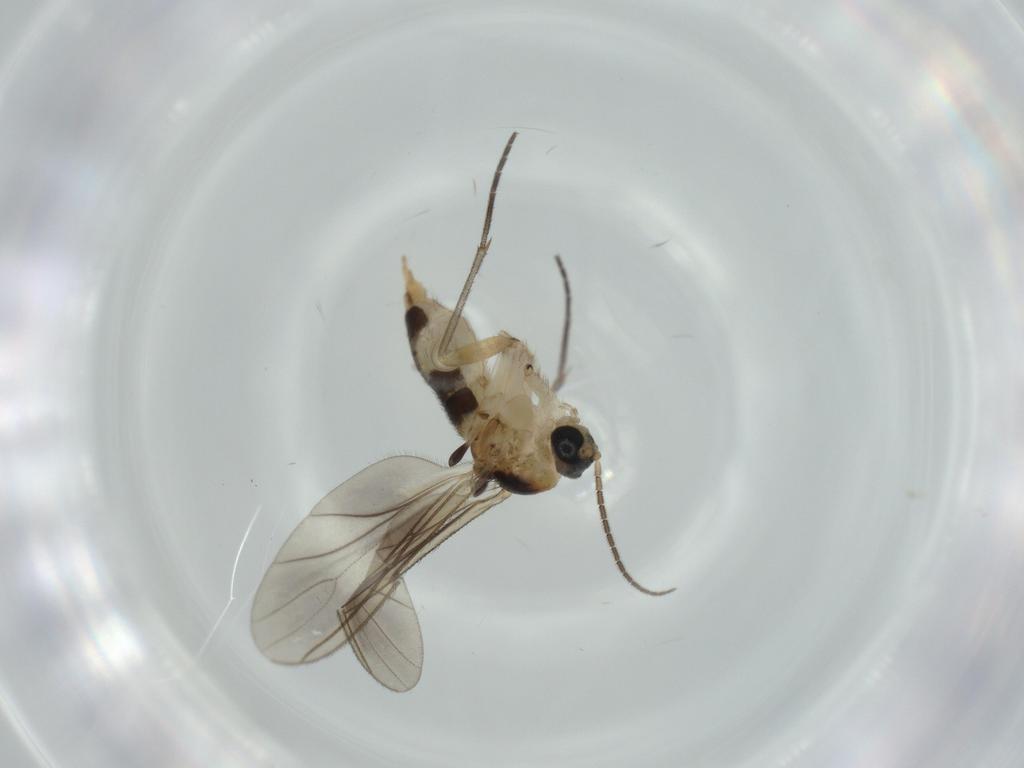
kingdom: Animalia
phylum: Arthropoda
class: Insecta
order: Diptera
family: Sciaridae
